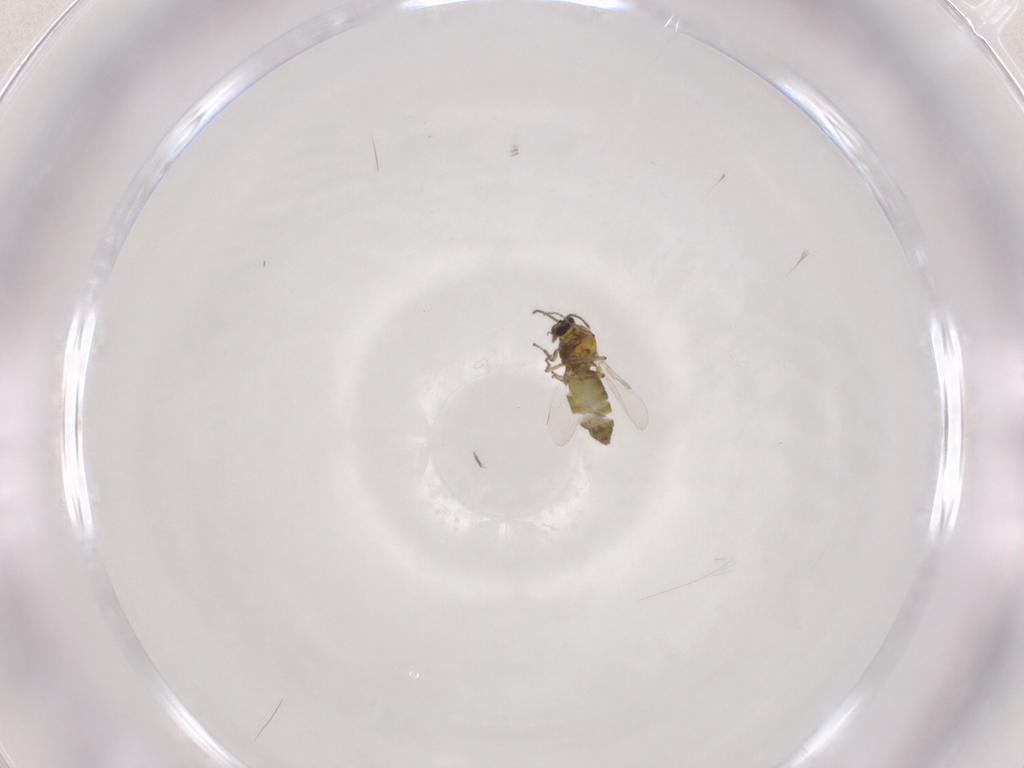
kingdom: Animalia
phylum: Arthropoda
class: Insecta
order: Diptera
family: Ceratopogonidae
